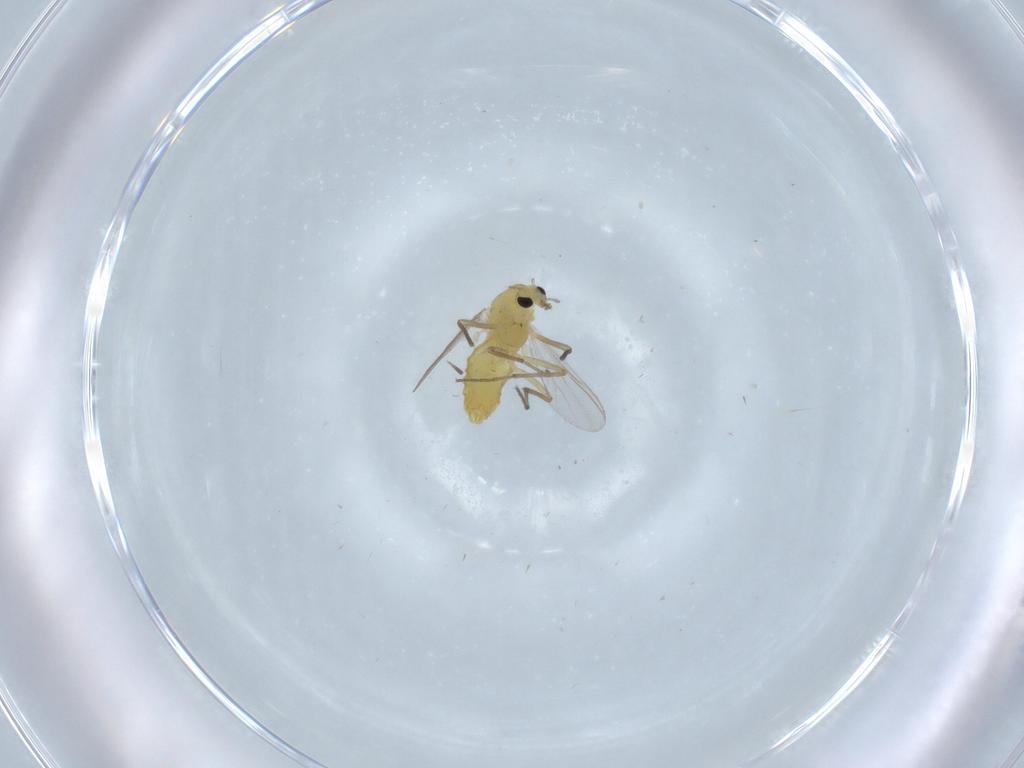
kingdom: Animalia
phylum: Arthropoda
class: Insecta
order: Diptera
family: Chironomidae
